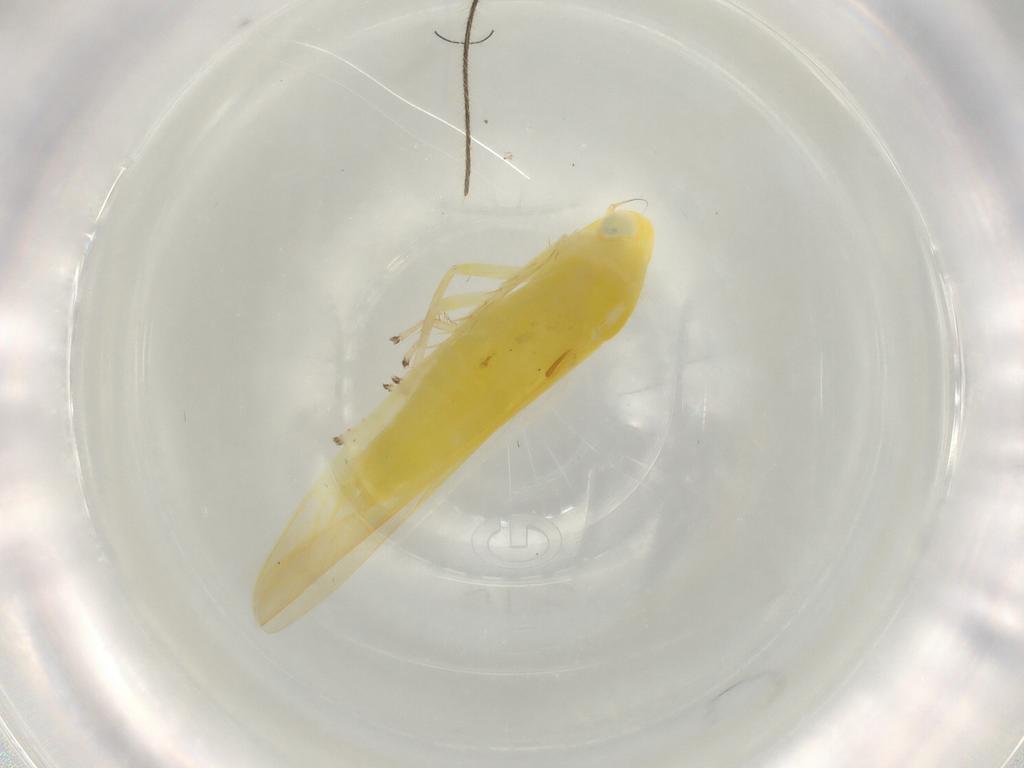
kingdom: Animalia
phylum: Arthropoda
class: Insecta
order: Hemiptera
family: Cicadellidae
